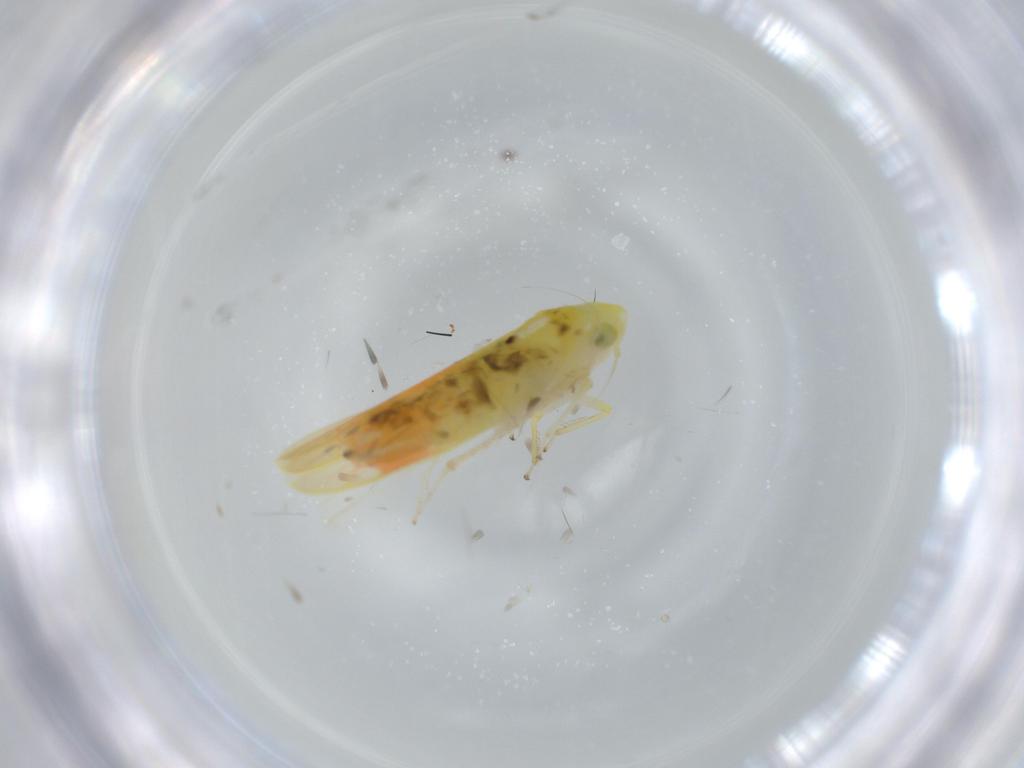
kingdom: Animalia
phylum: Arthropoda
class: Insecta
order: Hemiptera
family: Cicadellidae
